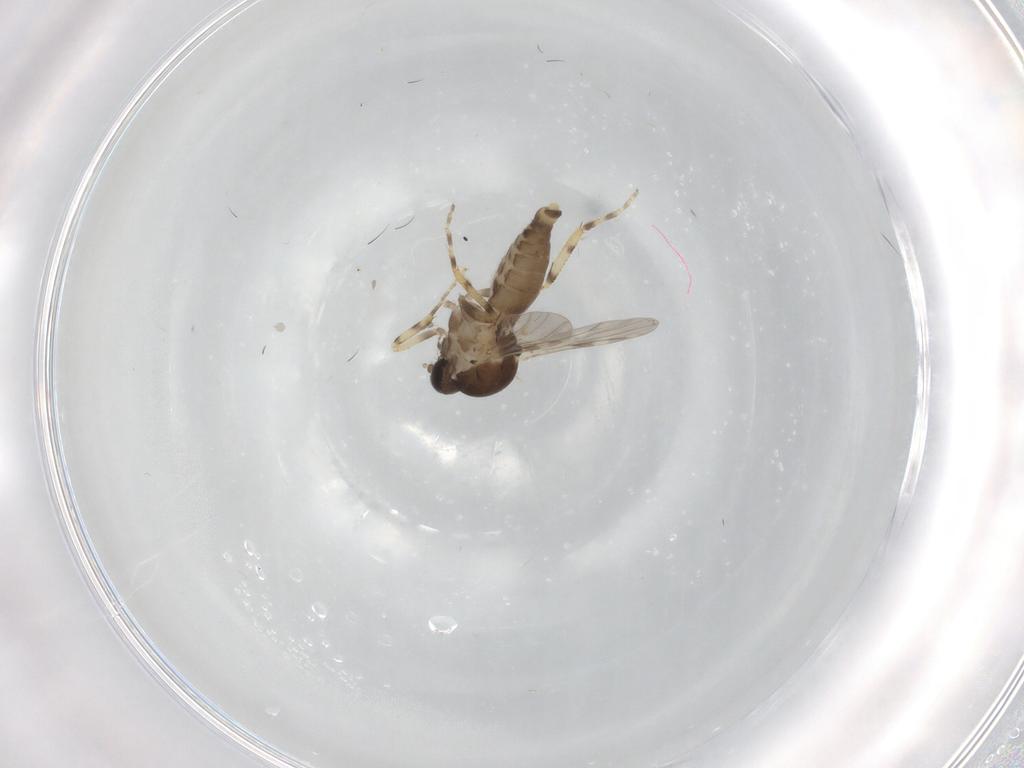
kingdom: Animalia
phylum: Arthropoda
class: Insecta
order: Diptera
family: Ceratopogonidae
